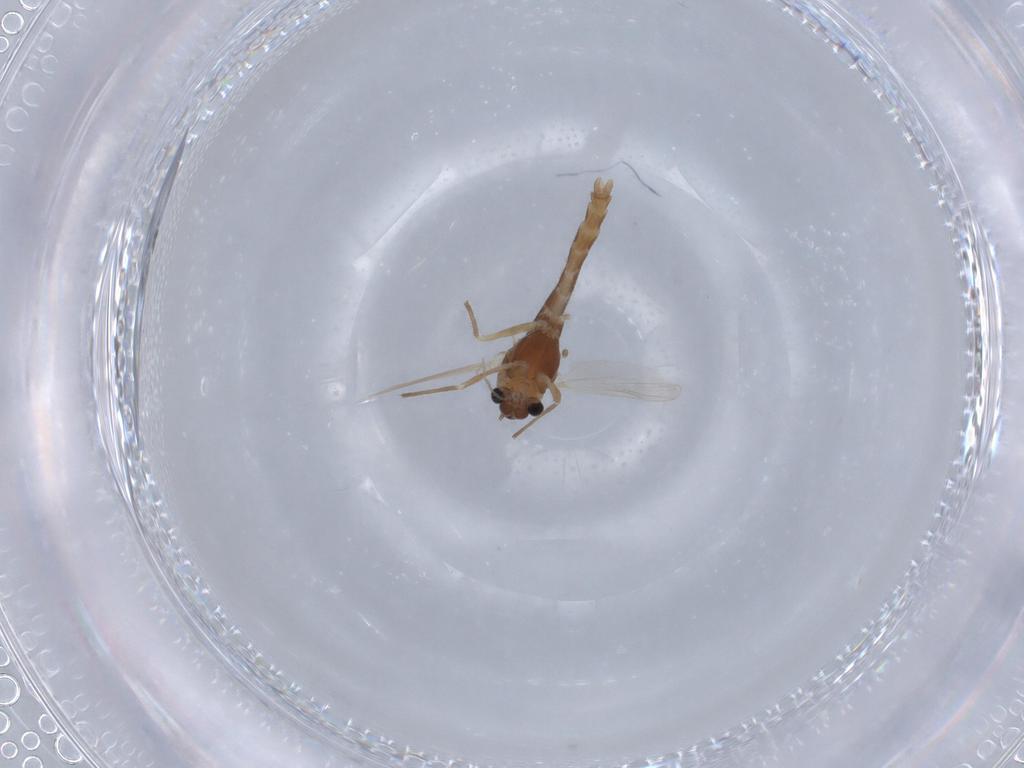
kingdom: Animalia
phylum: Arthropoda
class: Insecta
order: Diptera
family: Chironomidae
